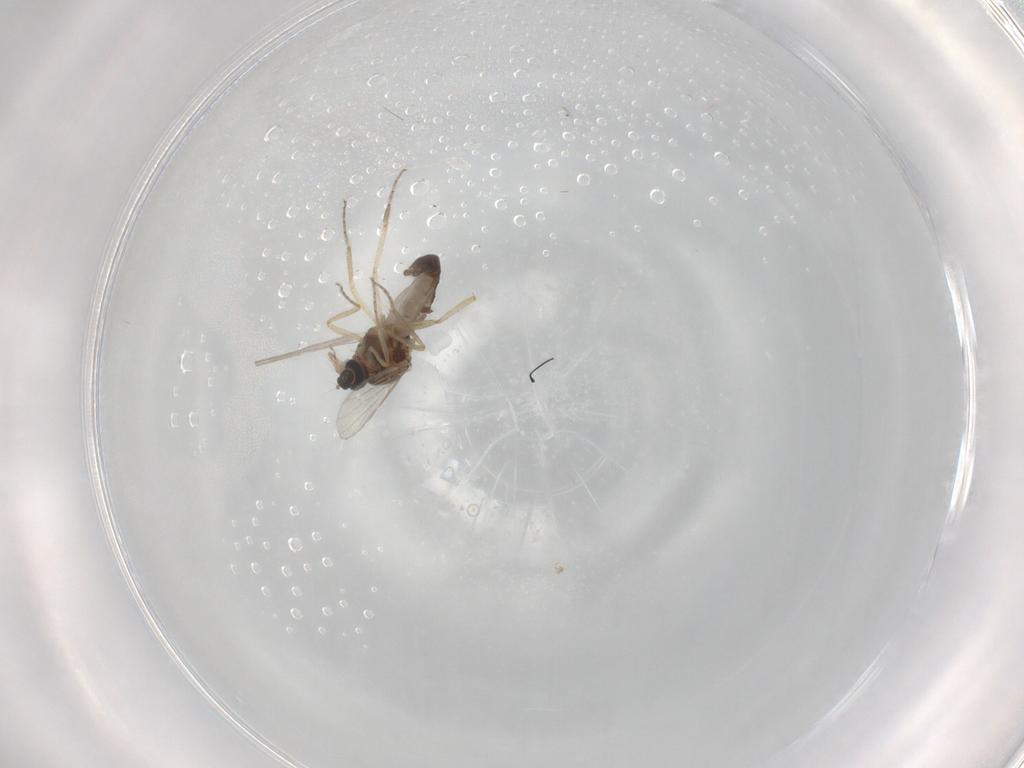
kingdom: Animalia
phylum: Arthropoda
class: Insecta
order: Diptera
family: Ceratopogonidae
